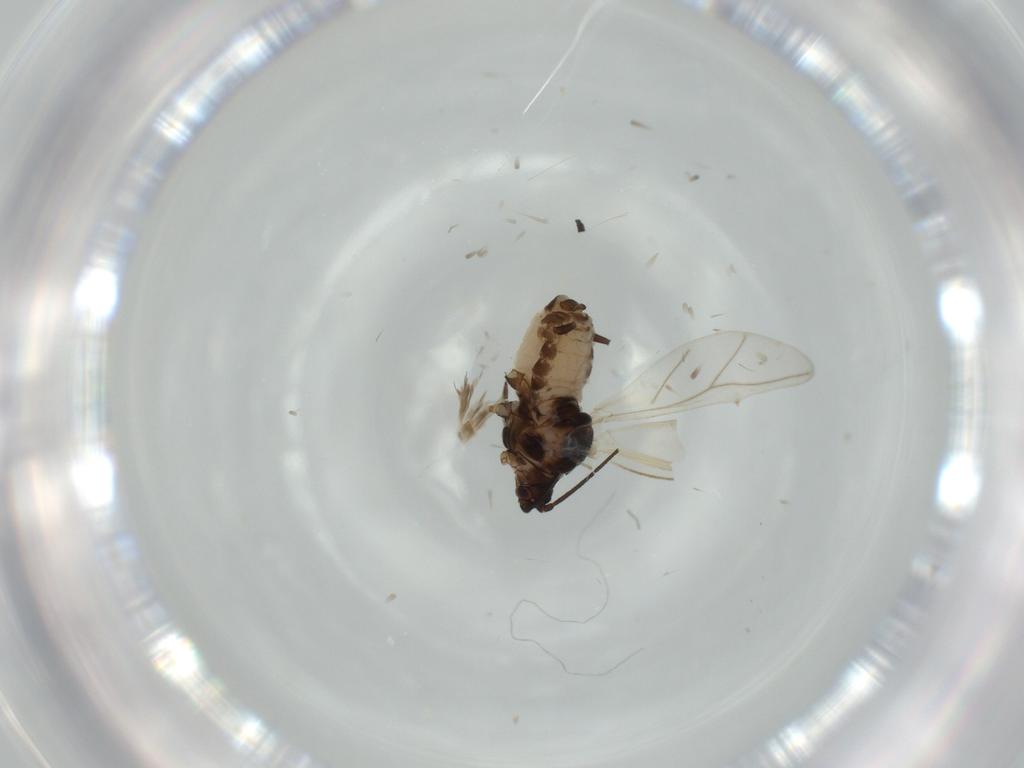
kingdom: Animalia
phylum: Arthropoda
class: Insecta
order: Hemiptera
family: Aphididae
